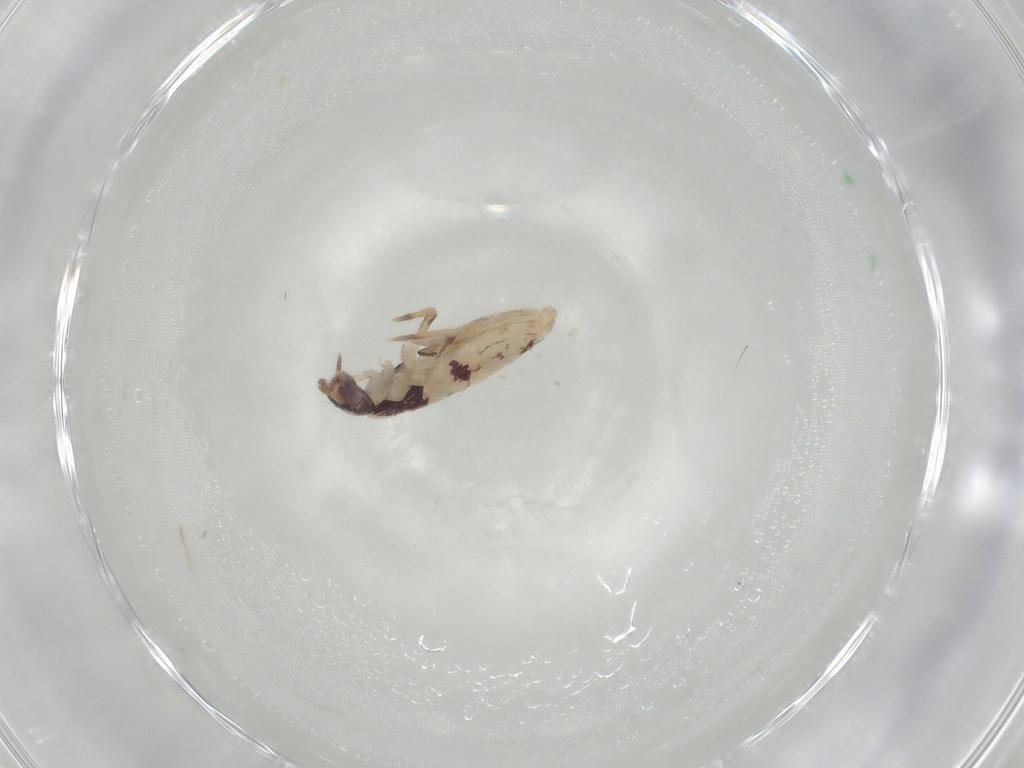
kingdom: Animalia
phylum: Arthropoda
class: Collembola
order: Entomobryomorpha
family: Entomobryidae
